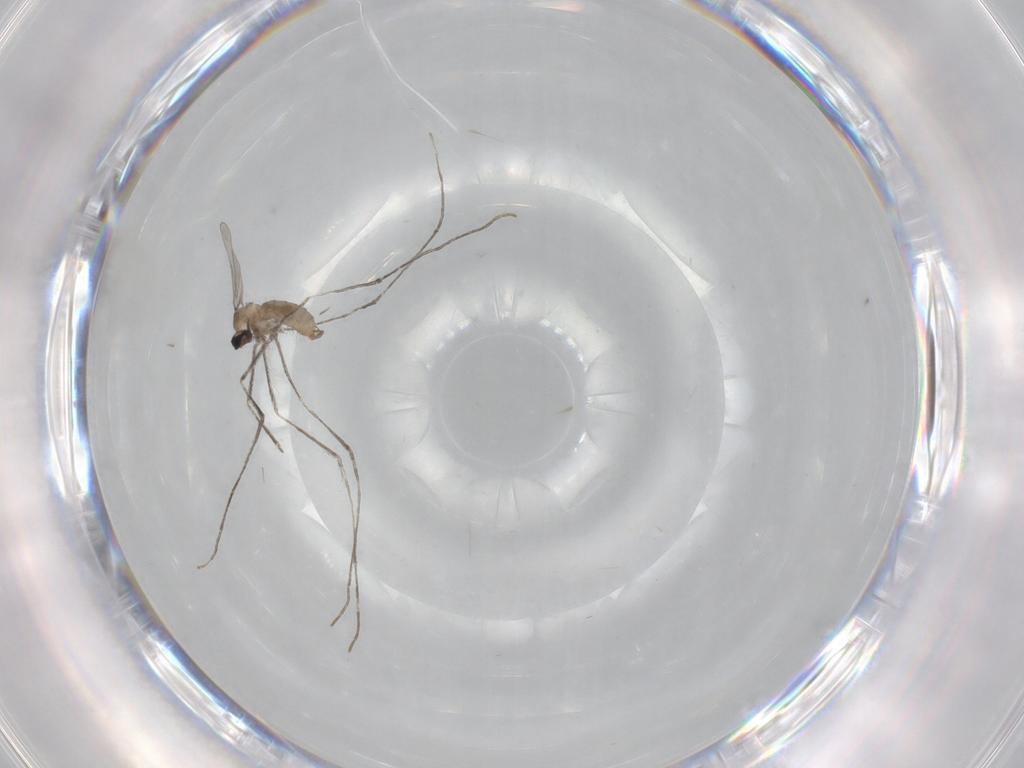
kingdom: Animalia
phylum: Arthropoda
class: Insecta
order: Diptera
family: Cecidomyiidae
